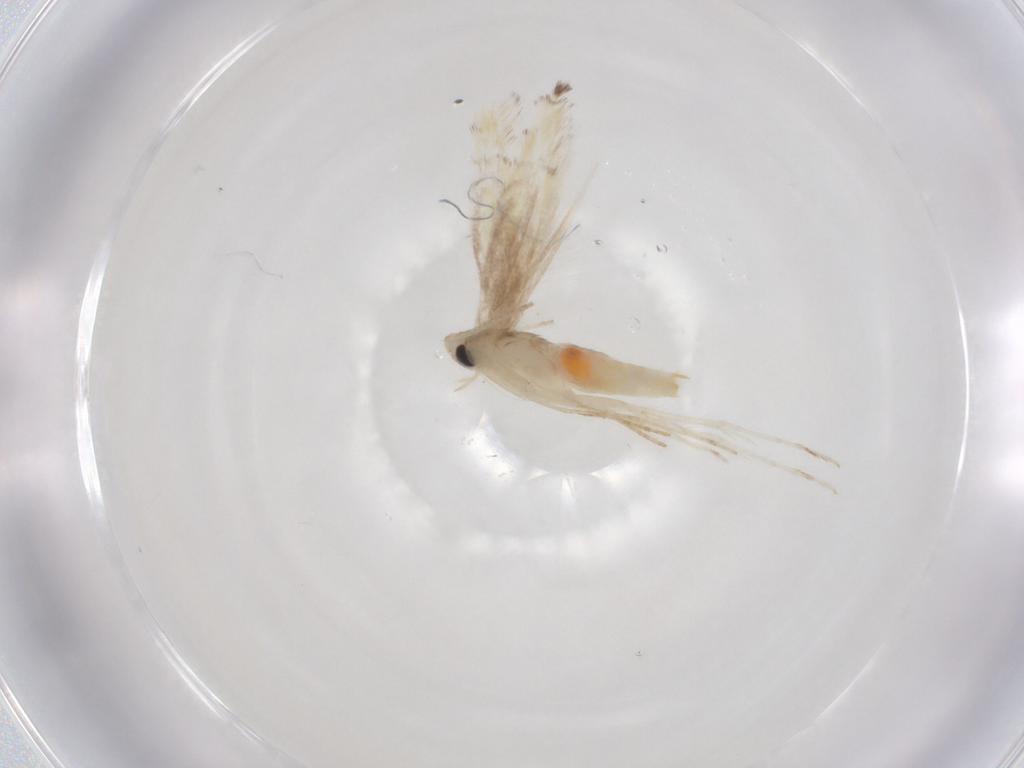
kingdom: Animalia
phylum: Arthropoda
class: Insecta
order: Lepidoptera
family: Gracillariidae
